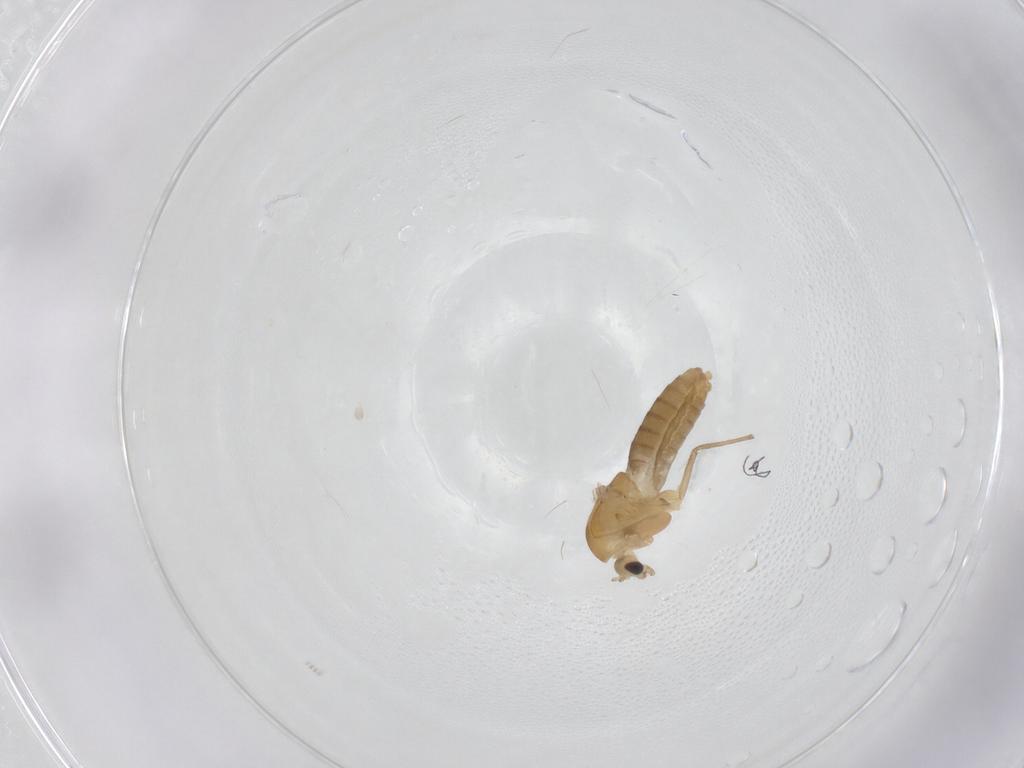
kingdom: Animalia
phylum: Arthropoda
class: Insecta
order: Diptera
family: Chironomidae
